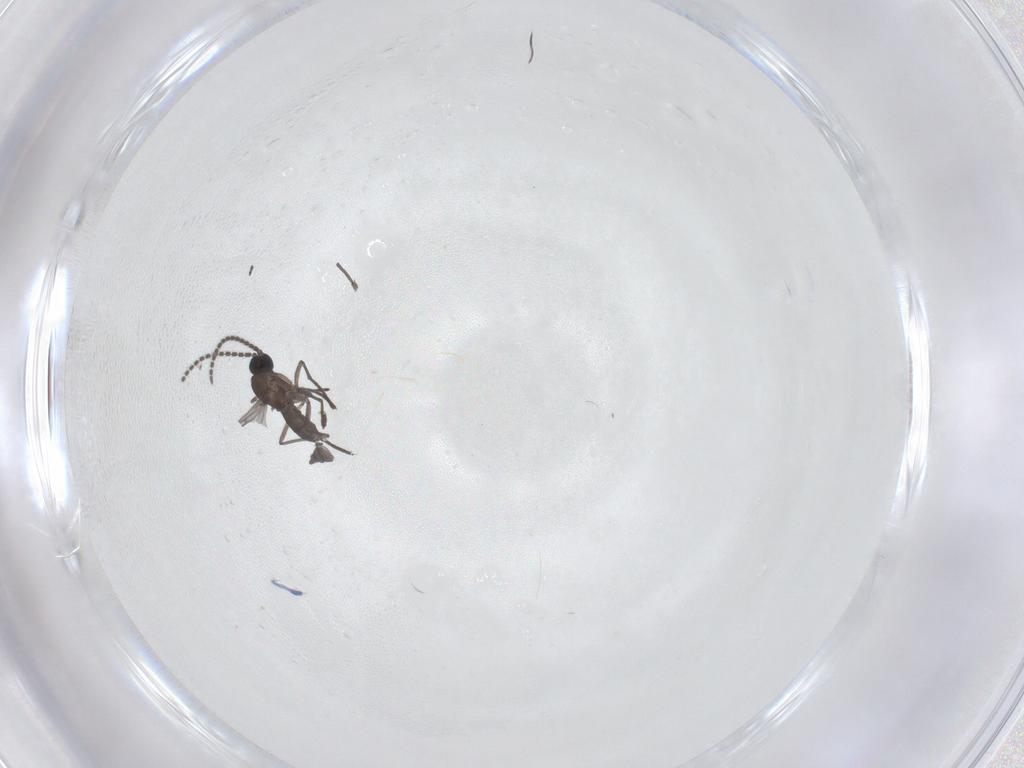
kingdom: Animalia
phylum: Arthropoda
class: Insecta
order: Diptera
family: Cecidomyiidae
